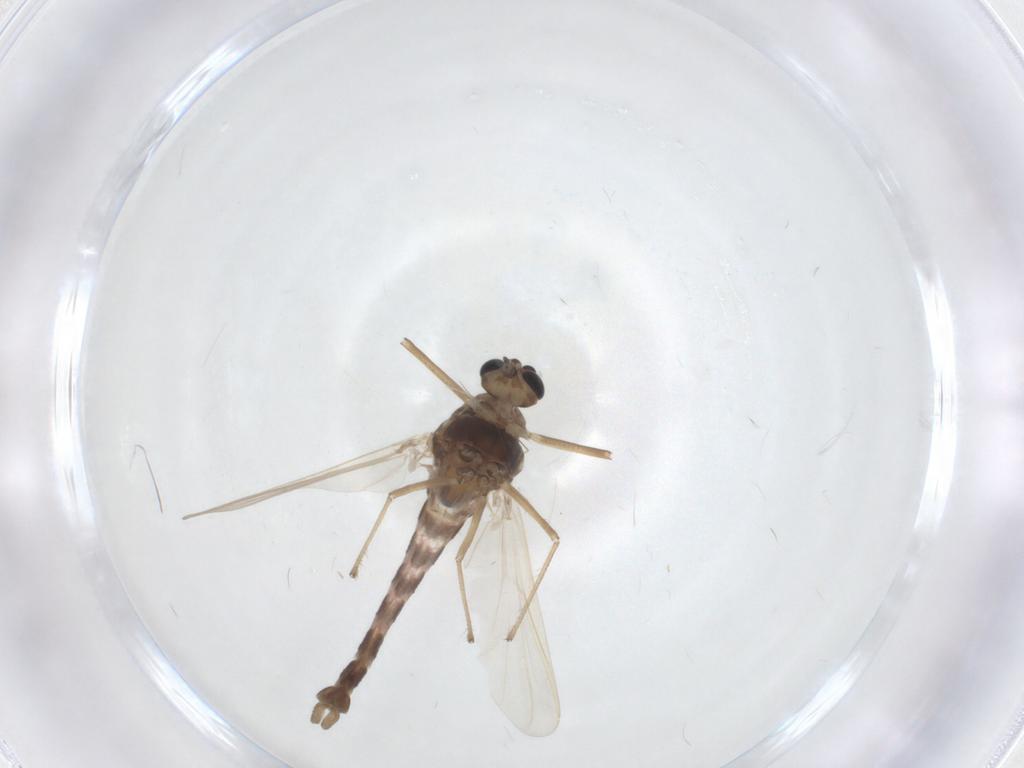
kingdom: Animalia
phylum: Arthropoda
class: Insecta
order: Diptera
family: Chironomidae
